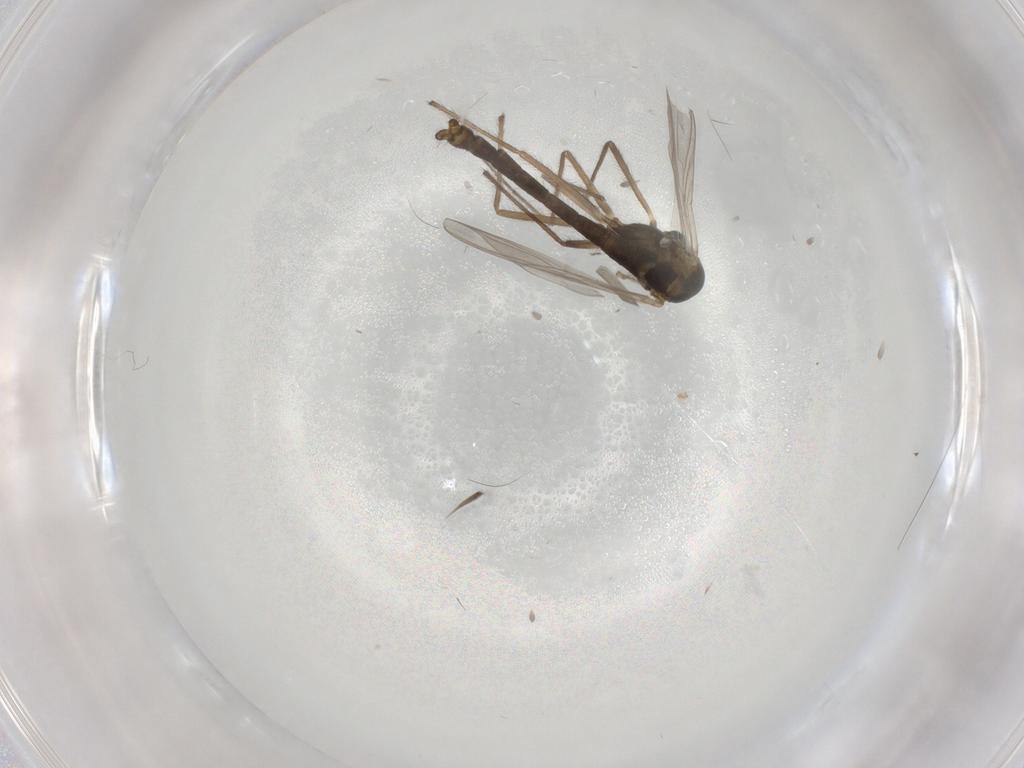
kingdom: Animalia
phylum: Arthropoda
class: Insecta
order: Diptera
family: Chironomidae
